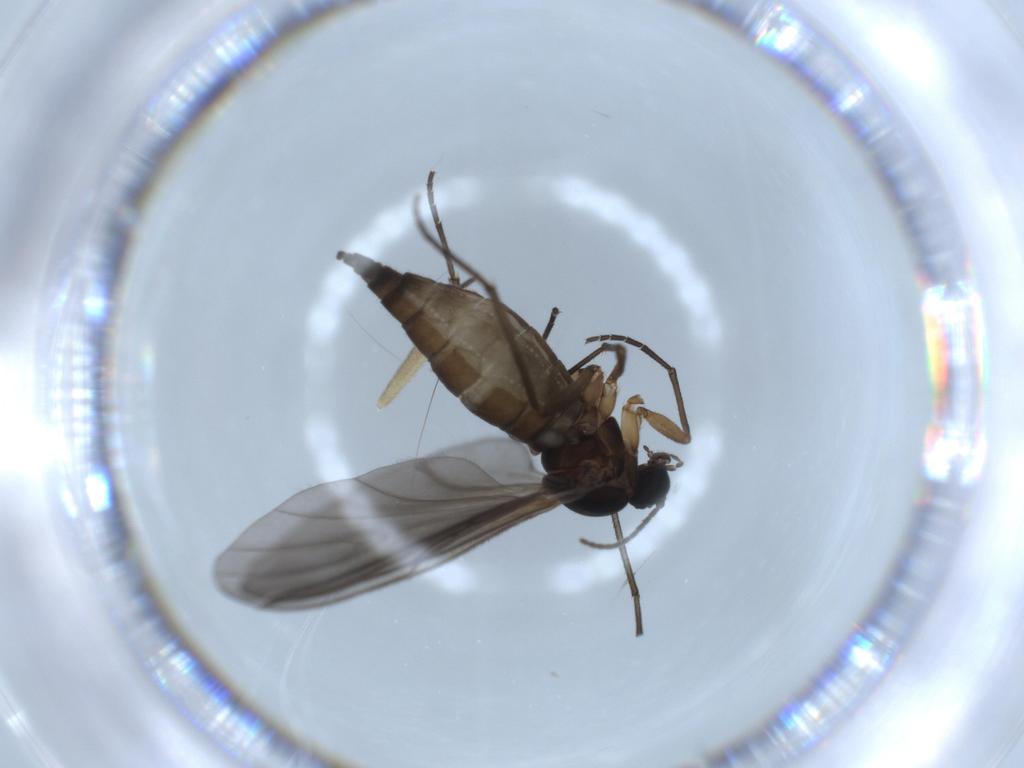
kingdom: Animalia
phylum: Arthropoda
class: Insecta
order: Diptera
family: Sciaridae
